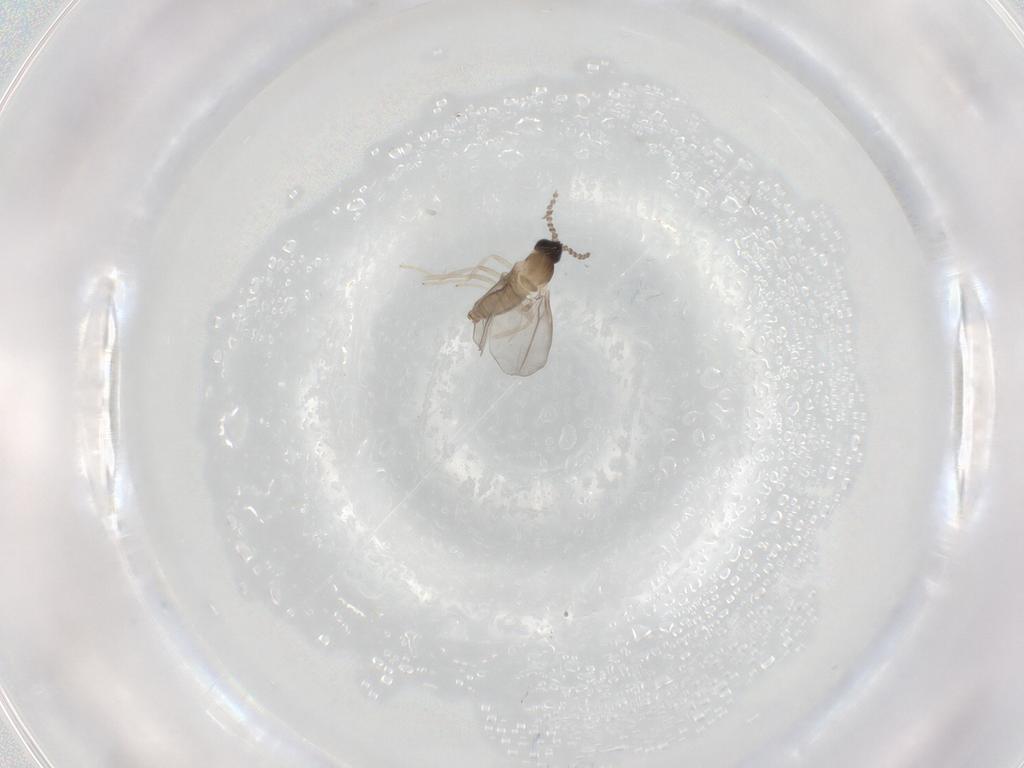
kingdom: Animalia
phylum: Arthropoda
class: Insecta
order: Diptera
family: Cecidomyiidae
